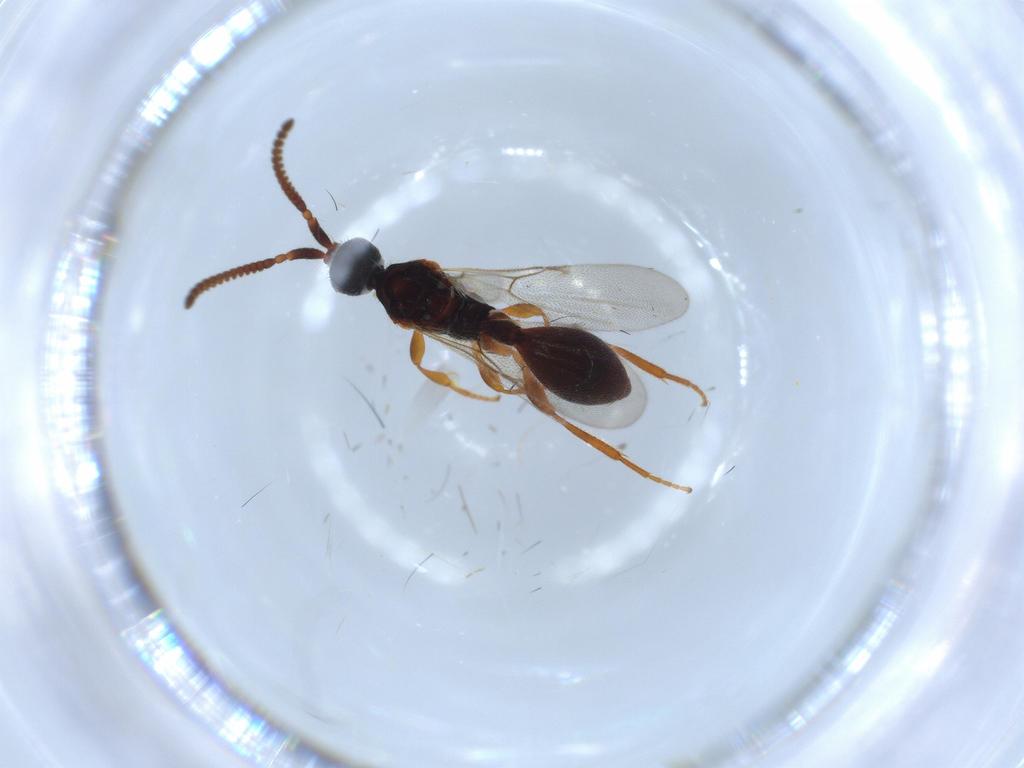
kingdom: Animalia
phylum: Arthropoda
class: Insecta
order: Hymenoptera
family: Diapriidae
